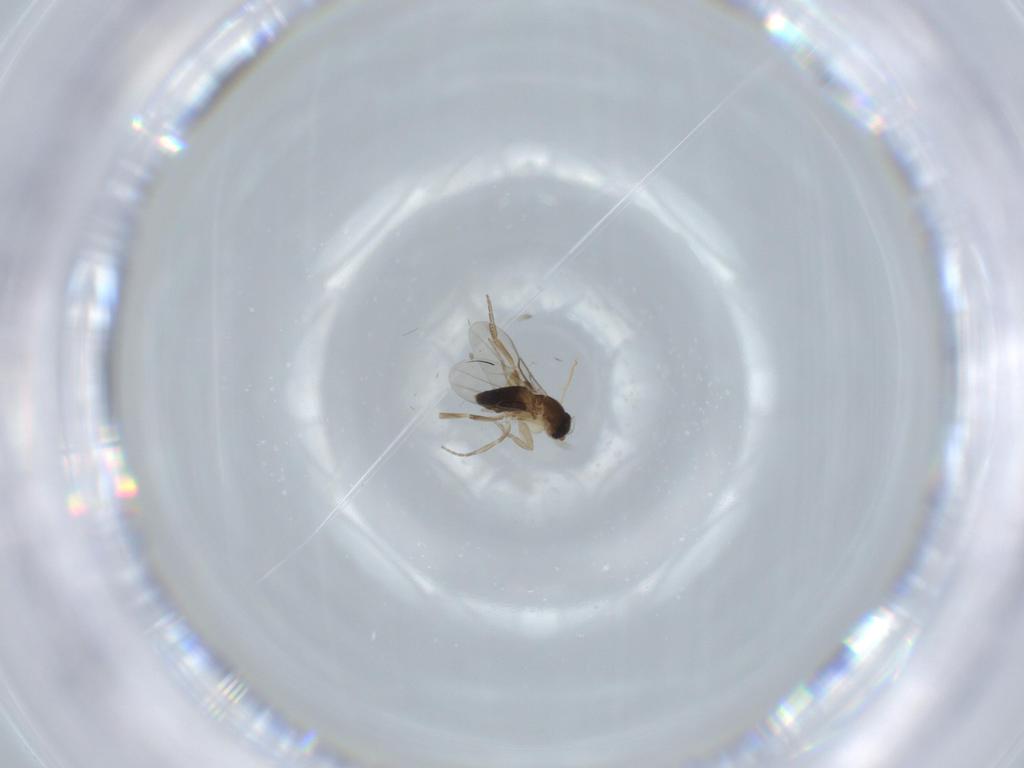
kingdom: Animalia
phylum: Arthropoda
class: Insecta
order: Diptera
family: Phoridae
